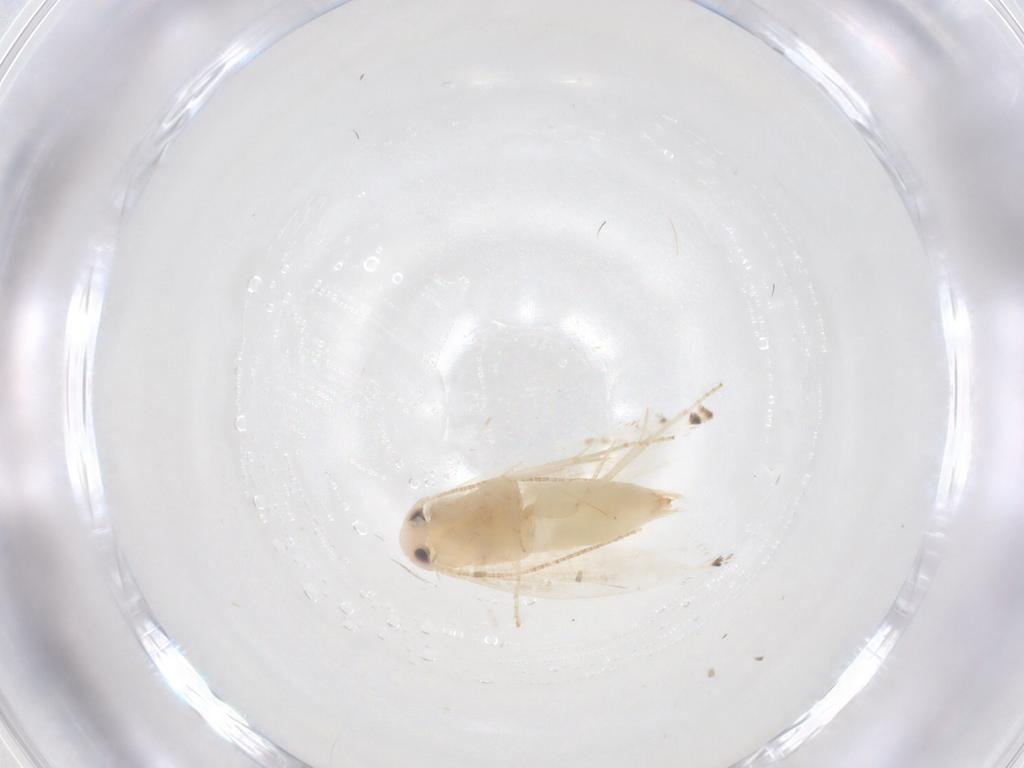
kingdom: Animalia
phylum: Arthropoda
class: Insecta
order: Lepidoptera
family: Gracillariidae
